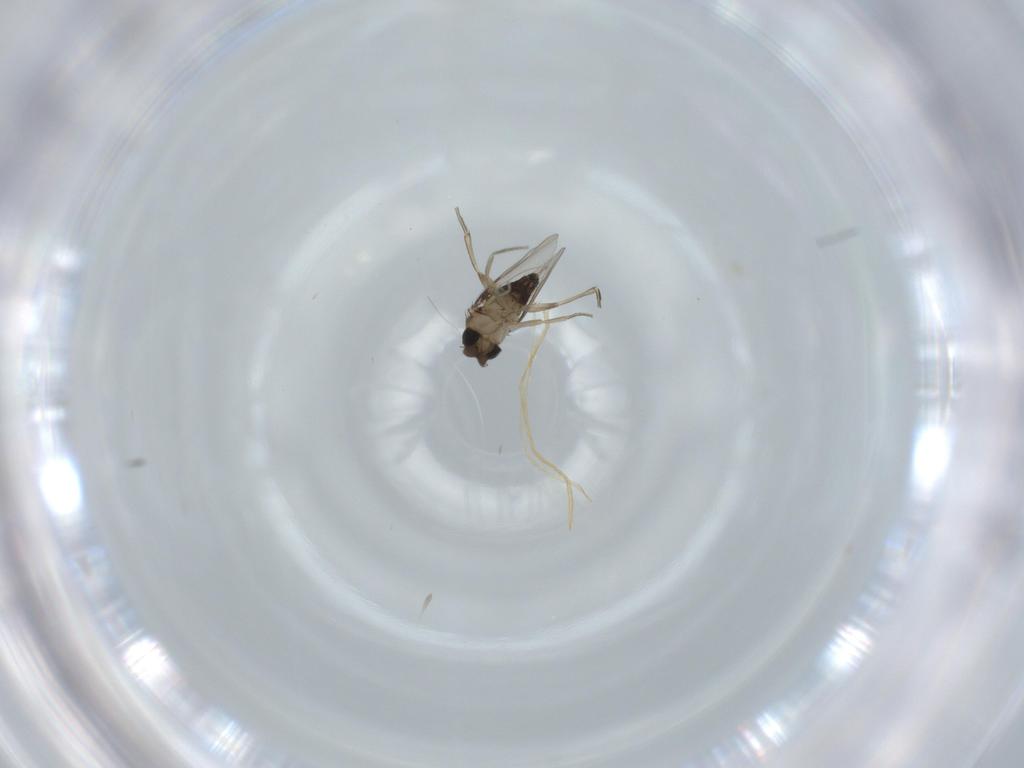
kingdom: Animalia
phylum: Arthropoda
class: Insecta
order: Diptera
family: Phoridae
